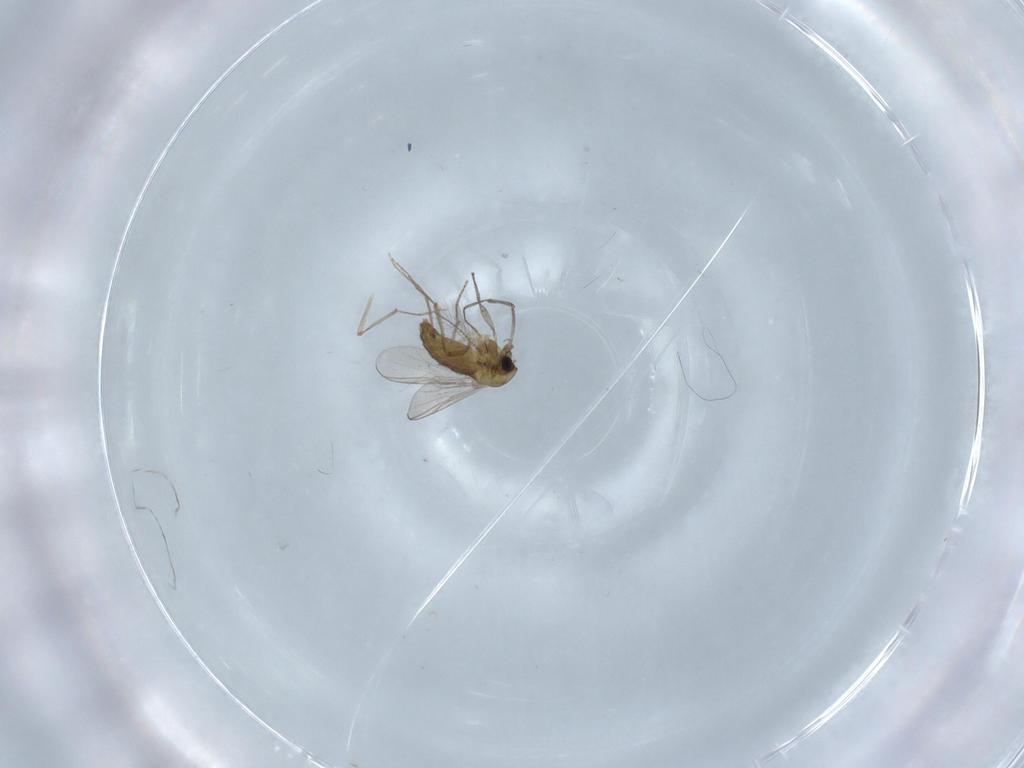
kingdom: Animalia
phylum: Arthropoda
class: Insecta
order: Diptera
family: Chironomidae
